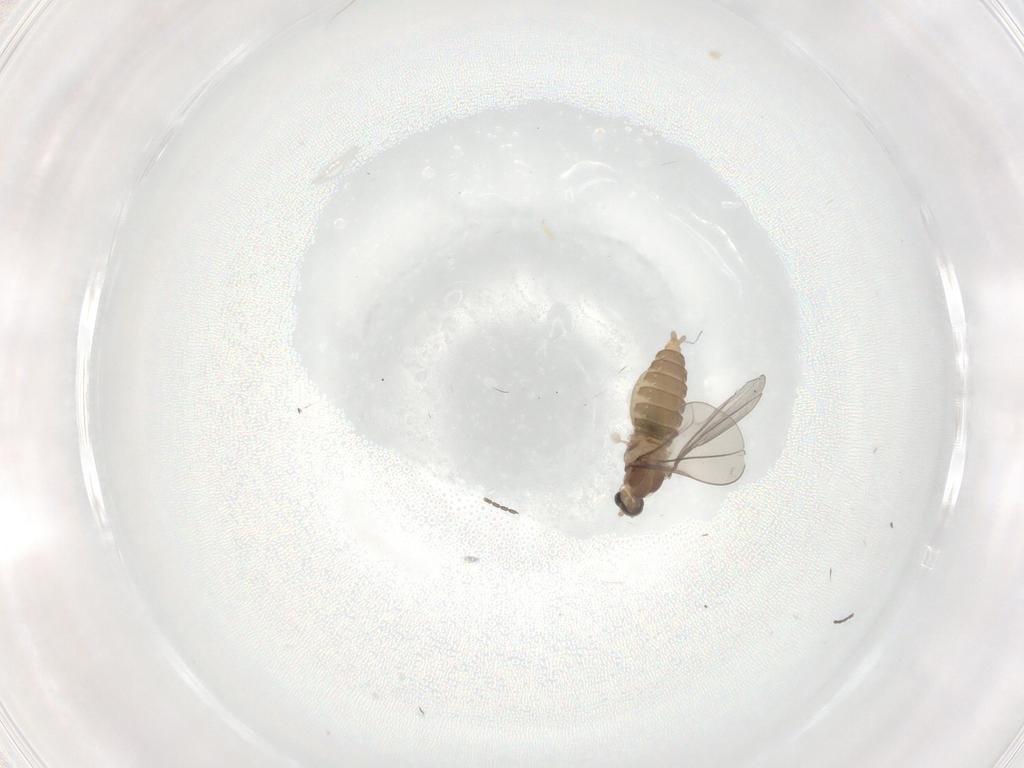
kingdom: Animalia
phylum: Arthropoda
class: Insecta
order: Diptera
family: Cecidomyiidae
